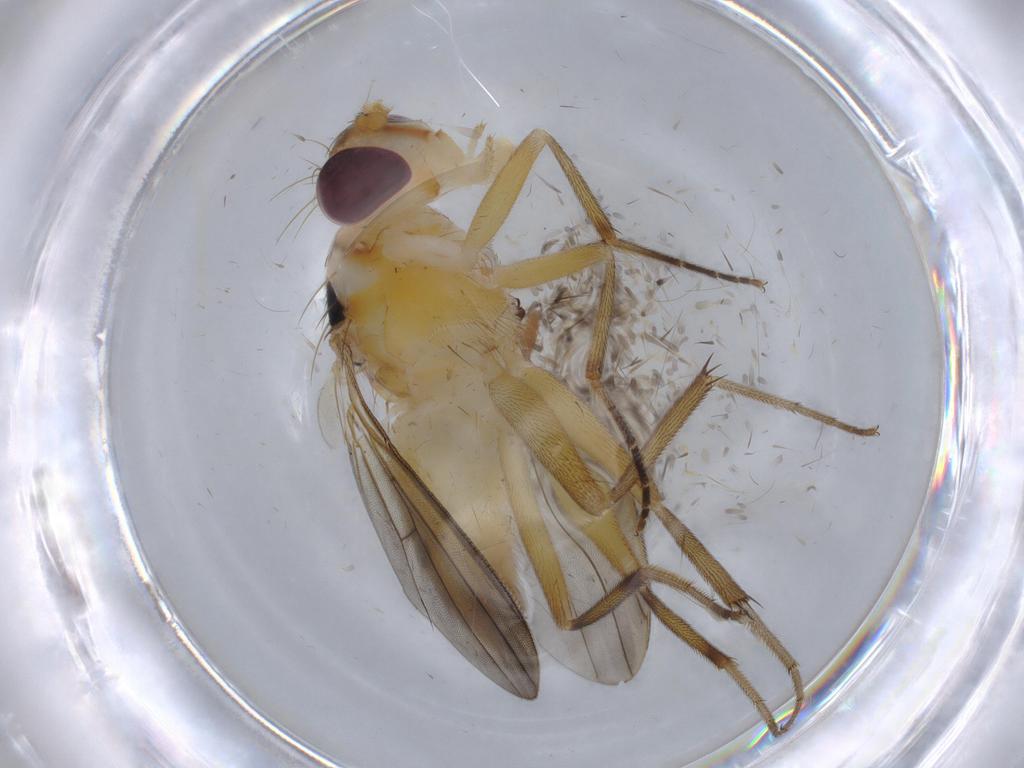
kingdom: Animalia
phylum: Arthropoda
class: Insecta
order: Diptera
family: Clusiidae
